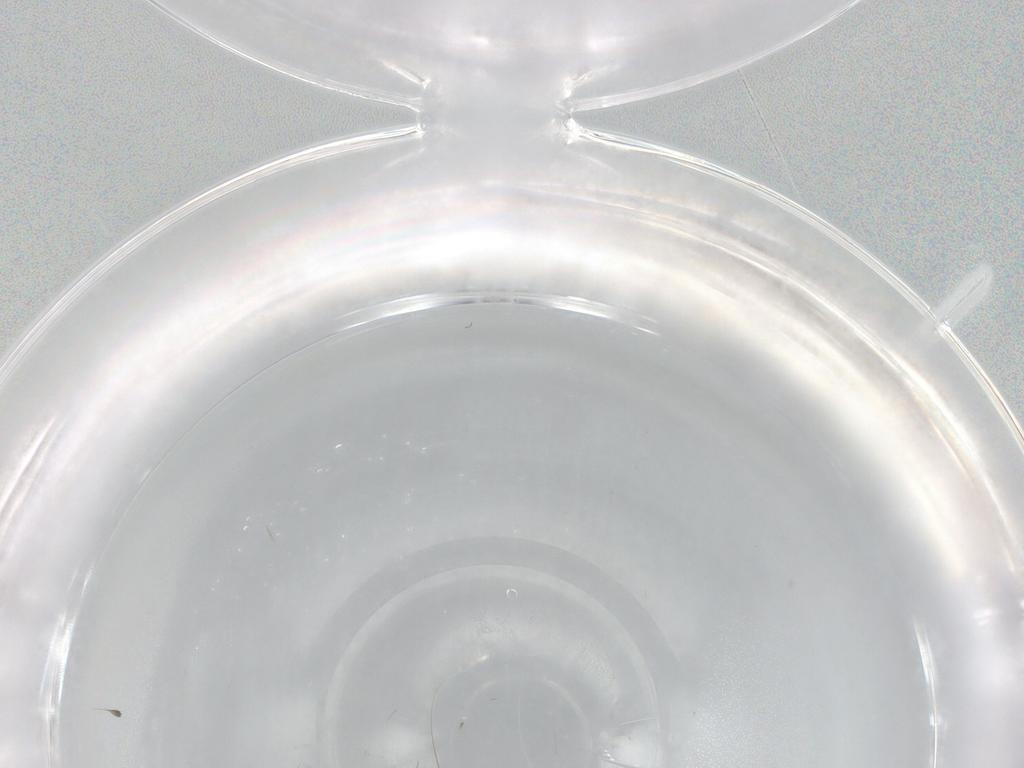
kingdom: Animalia
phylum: Arthropoda
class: Insecta
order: Diptera
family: Phoridae
